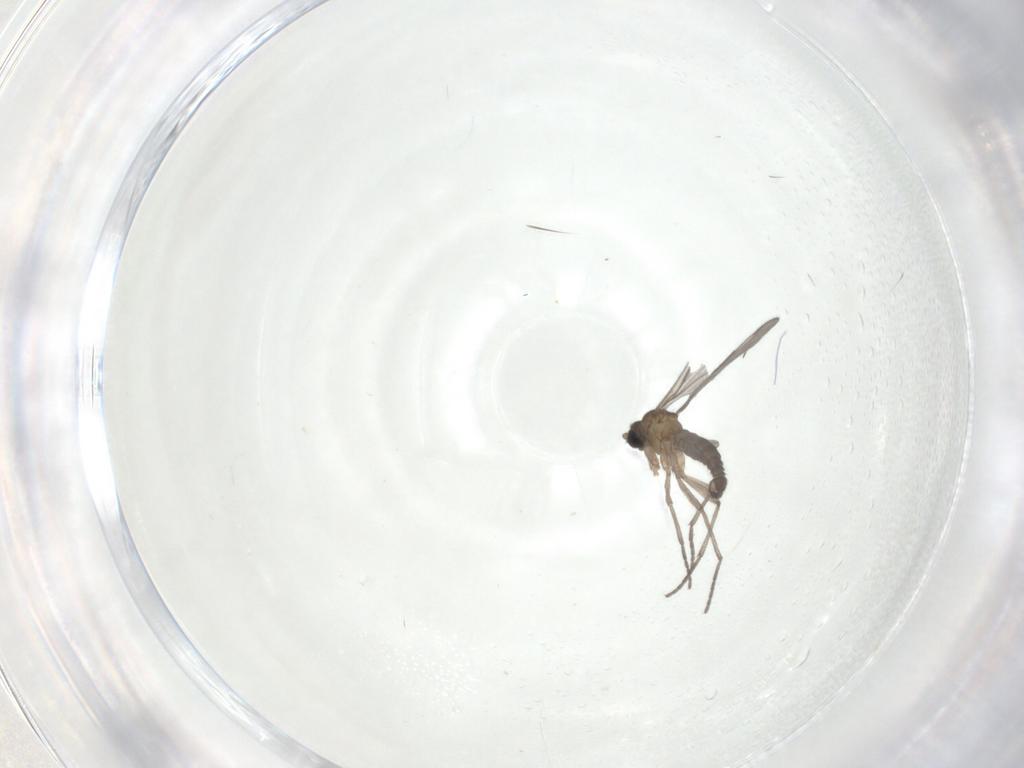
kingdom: Animalia
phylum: Arthropoda
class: Insecta
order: Diptera
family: Sciaridae
